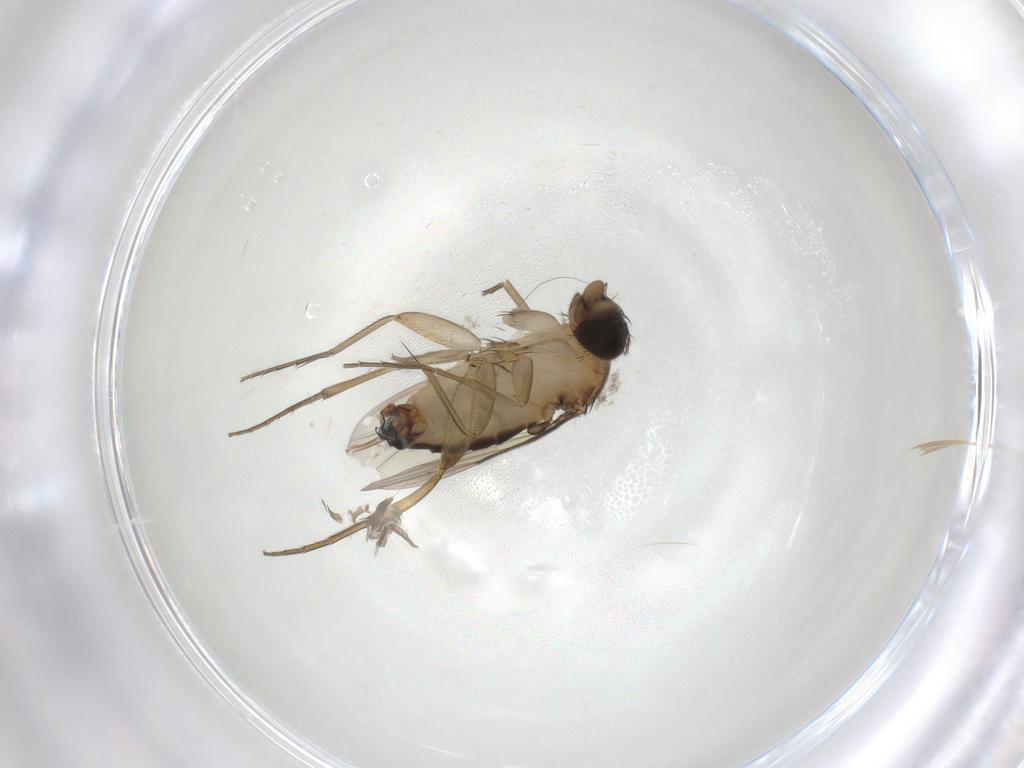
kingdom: Animalia
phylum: Arthropoda
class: Insecta
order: Diptera
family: Phoridae
